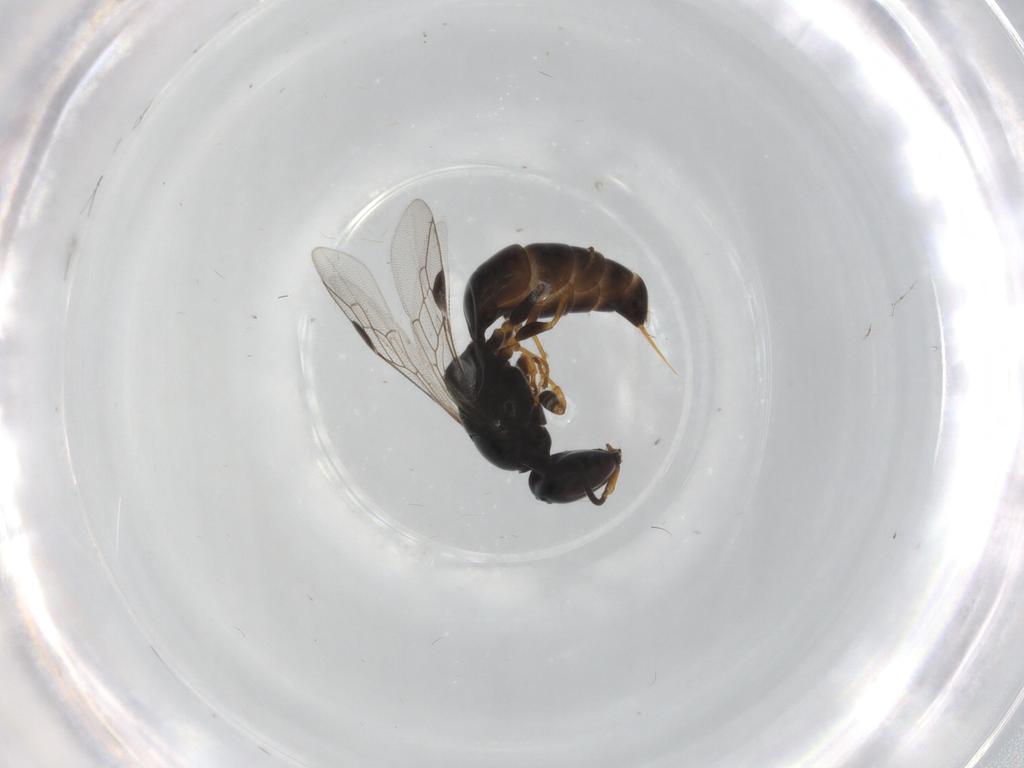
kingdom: Animalia
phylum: Arthropoda
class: Insecta
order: Hymenoptera
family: Pemphredonidae
